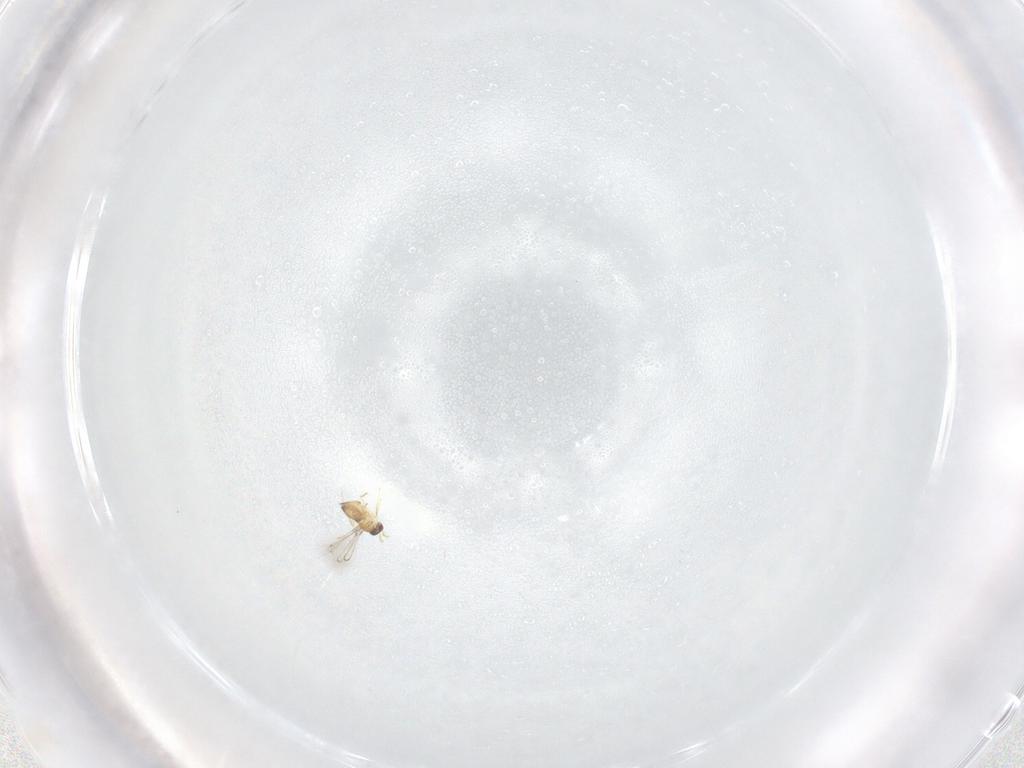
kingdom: Animalia
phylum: Arthropoda
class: Insecta
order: Hymenoptera
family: Mymaridae
